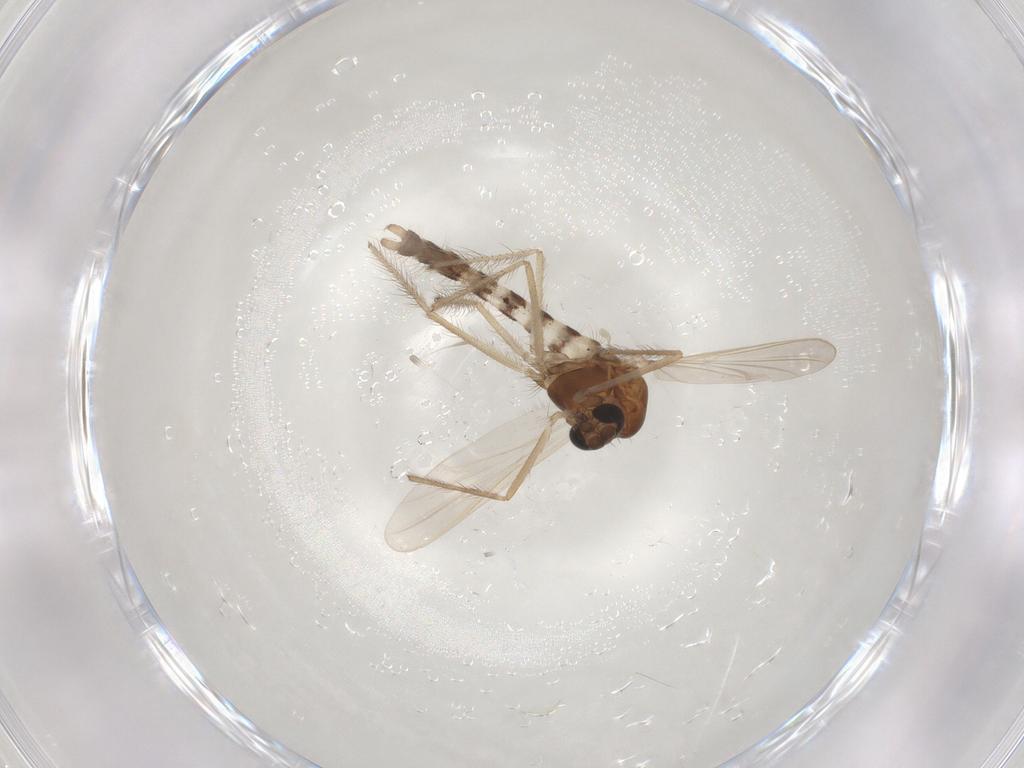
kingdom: Animalia
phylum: Arthropoda
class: Insecta
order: Diptera
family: Chironomidae
